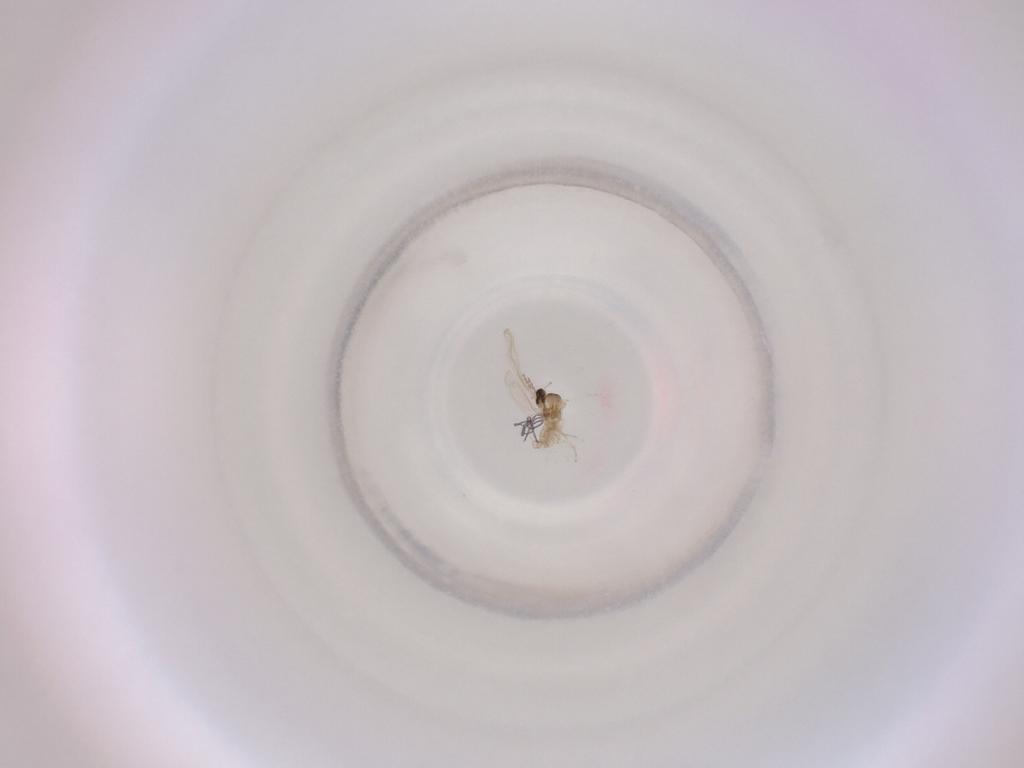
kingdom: Animalia
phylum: Arthropoda
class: Insecta
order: Diptera
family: Cecidomyiidae
